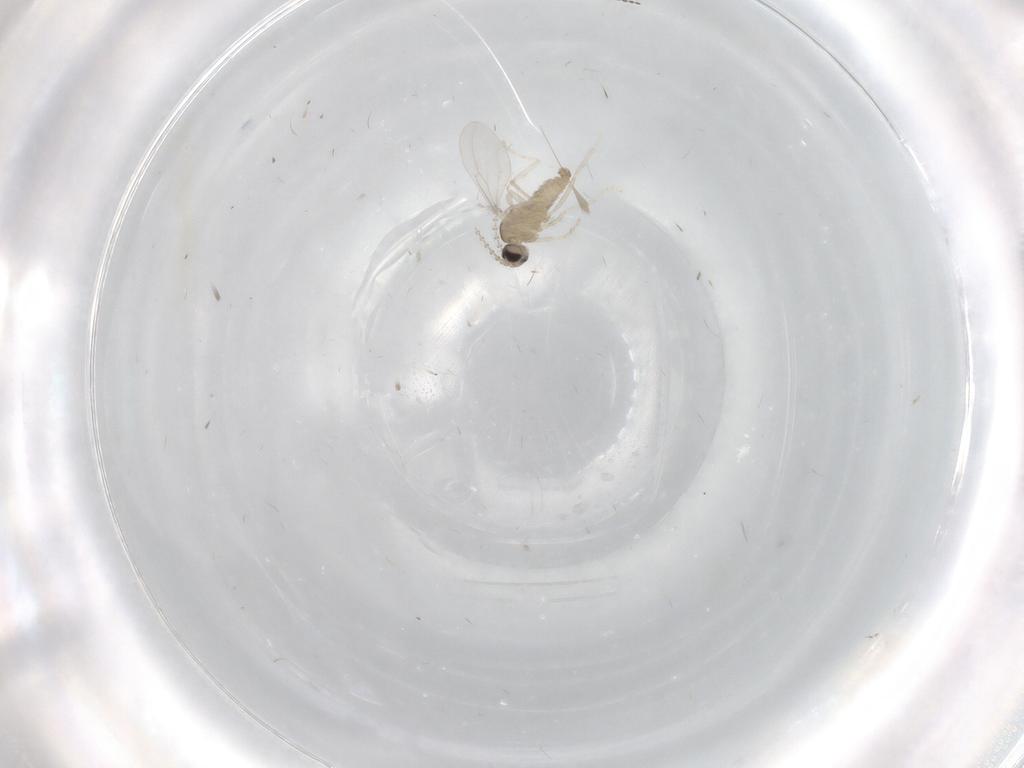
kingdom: Animalia
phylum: Arthropoda
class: Insecta
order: Diptera
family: Cecidomyiidae
